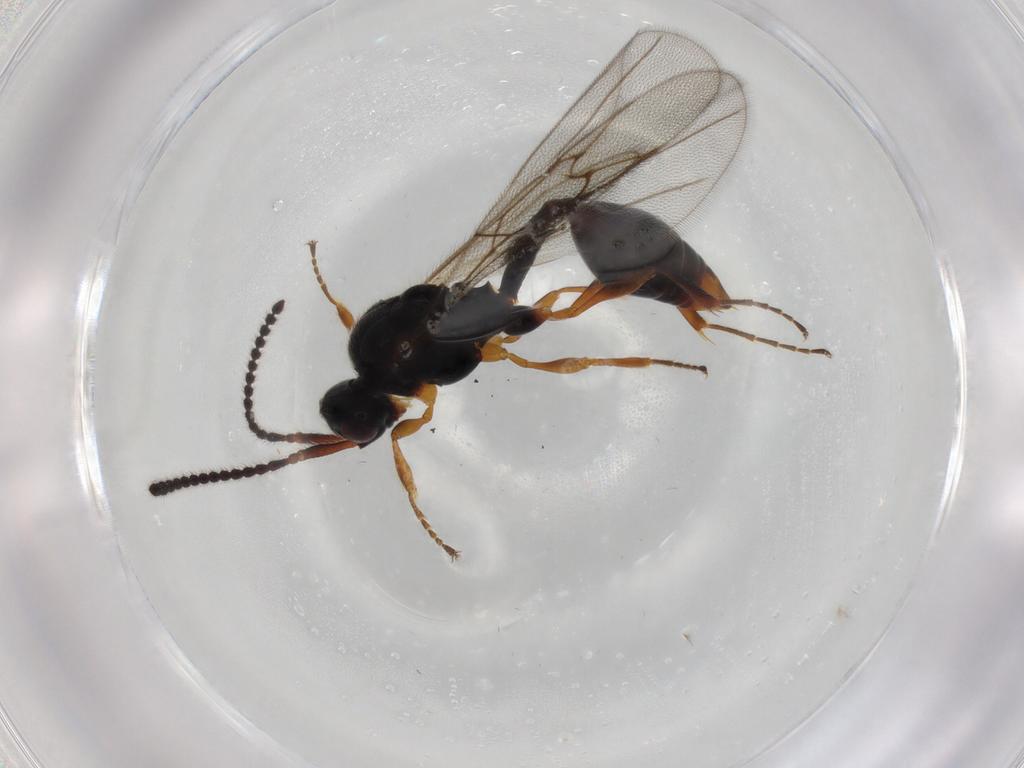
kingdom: Animalia
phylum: Arthropoda
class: Insecta
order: Hymenoptera
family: Diapriidae
